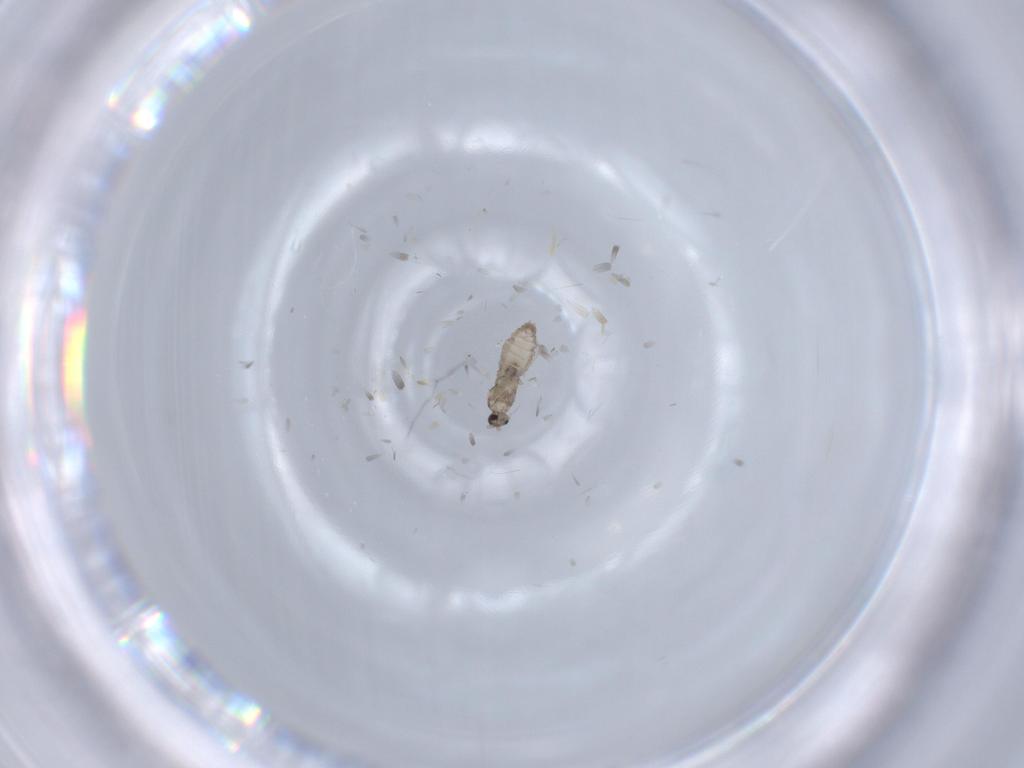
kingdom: Animalia
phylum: Arthropoda
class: Insecta
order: Diptera
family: Cecidomyiidae
